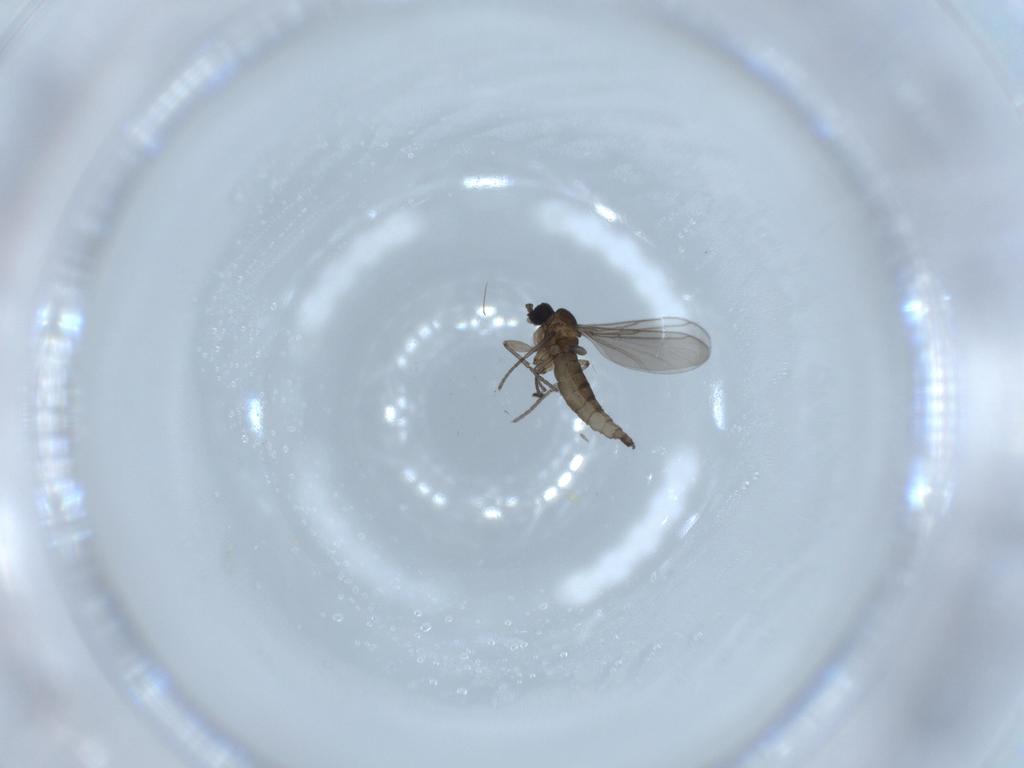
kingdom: Animalia
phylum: Arthropoda
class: Insecta
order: Diptera
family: Sciaridae
